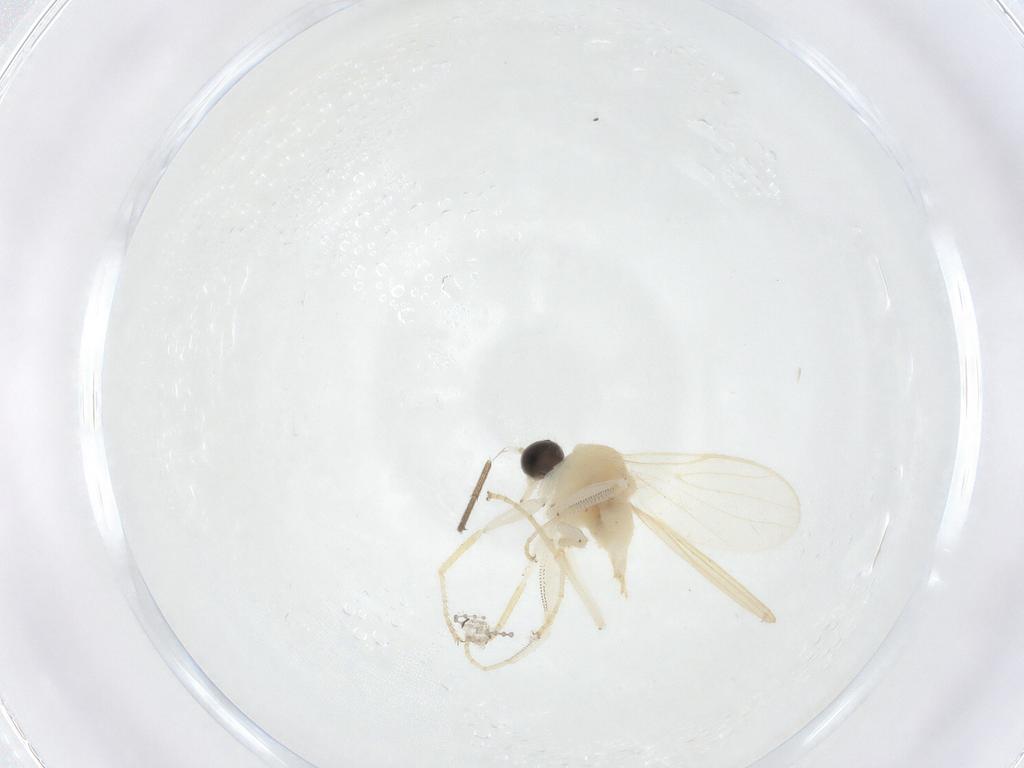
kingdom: Animalia
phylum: Arthropoda
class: Insecta
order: Diptera
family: Hybotidae
